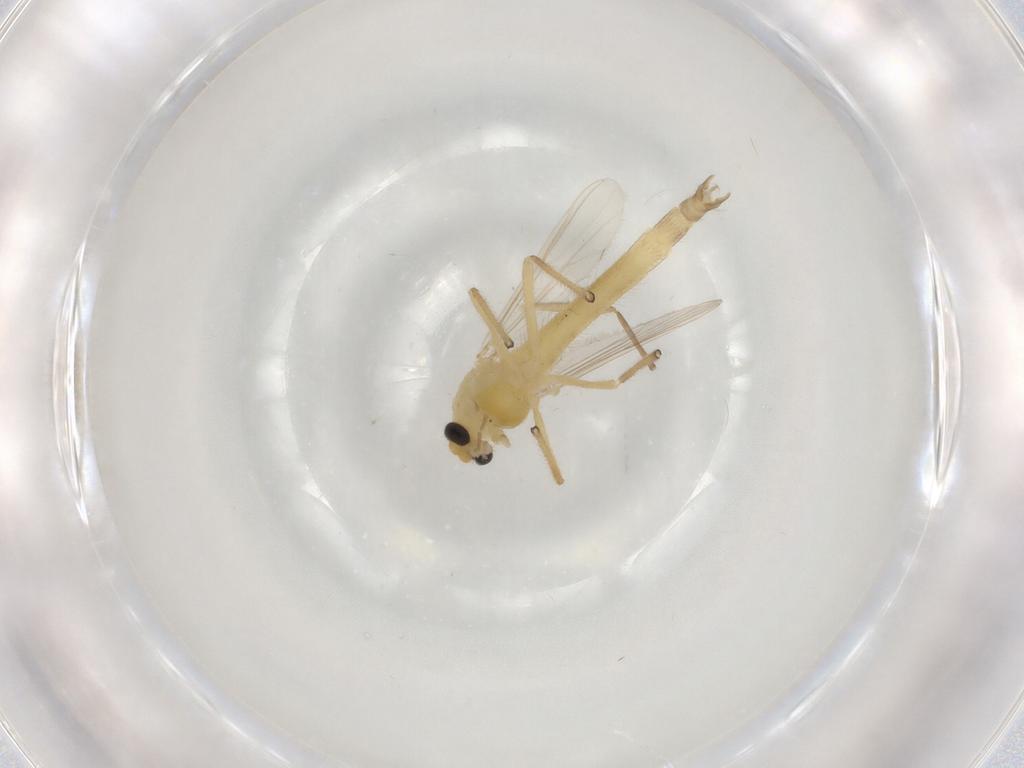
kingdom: Animalia
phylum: Arthropoda
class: Insecta
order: Diptera
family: Chironomidae
